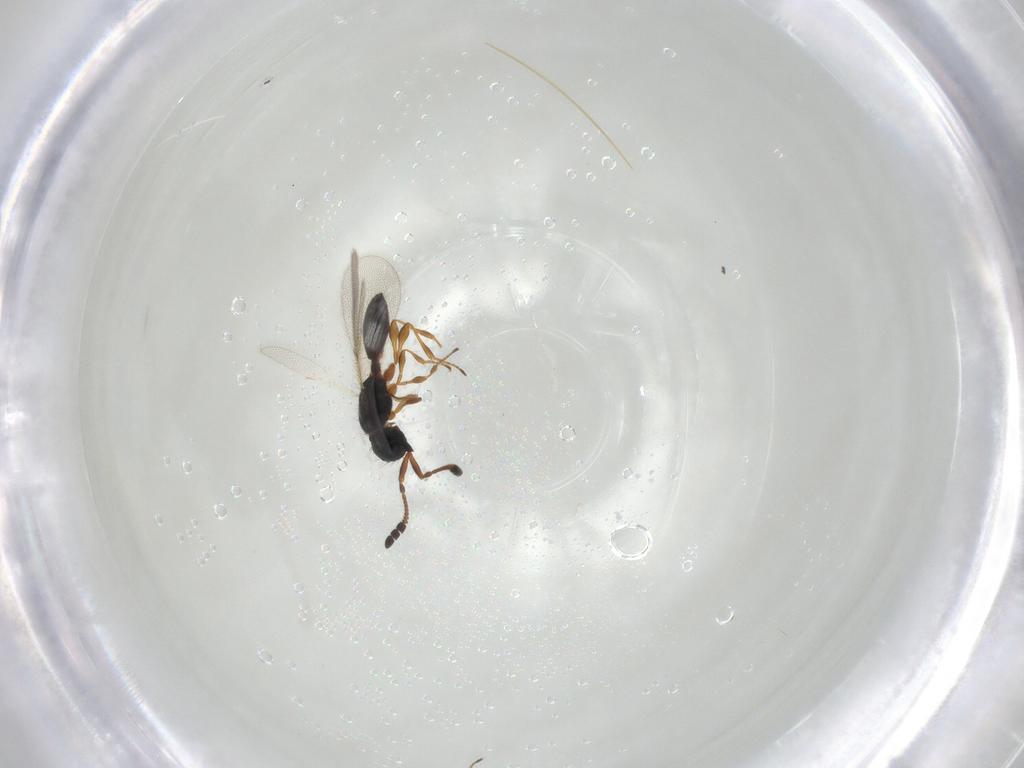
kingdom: Animalia
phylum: Arthropoda
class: Insecta
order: Hymenoptera
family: Diapriidae
